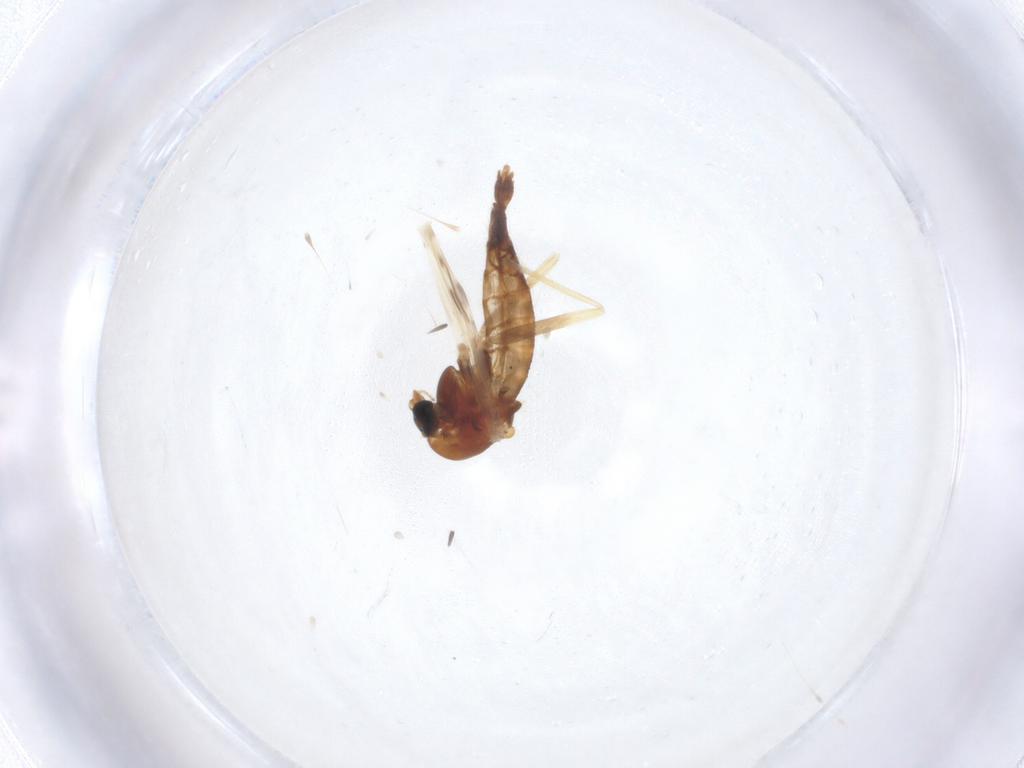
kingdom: Animalia
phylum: Arthropoda
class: Insecta
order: Diptera
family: Chironomidae
